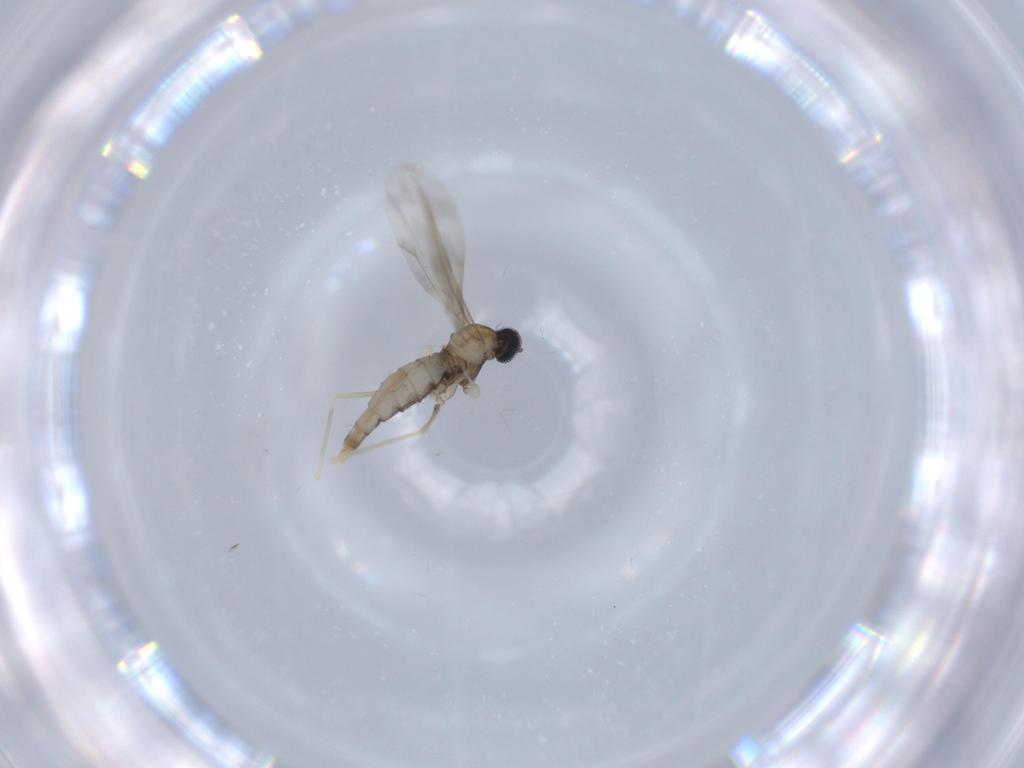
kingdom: Animalia
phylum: Arthropoda
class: Insecta
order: Diptera
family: Cecidomyiidae
